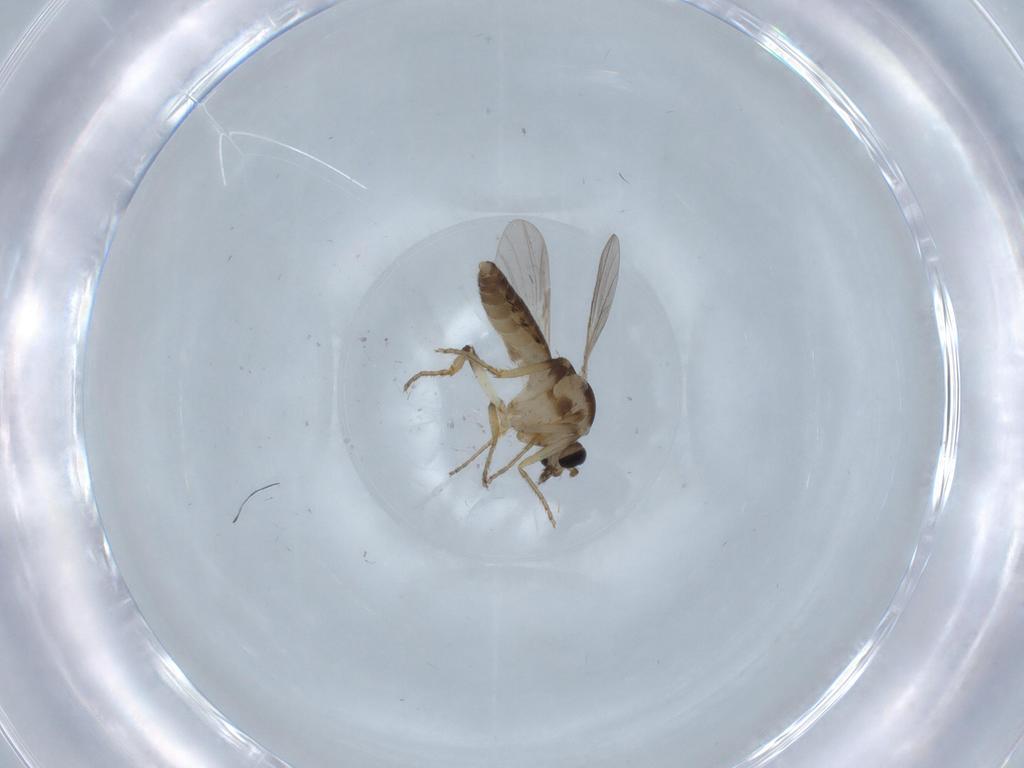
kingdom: Animalia
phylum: Arthropoda
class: Insecta
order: Diptera
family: Ceratopogonidae
